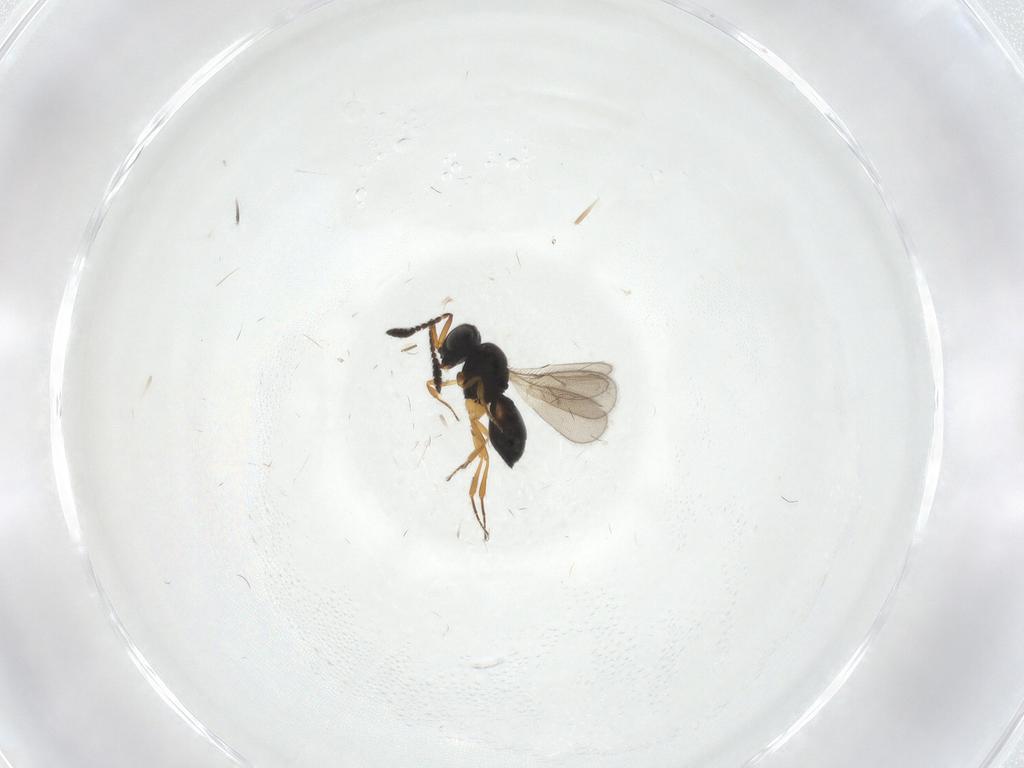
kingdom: Animalia
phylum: Arthropoda
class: Insecta
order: Hymenoptera
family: Scelionidae
